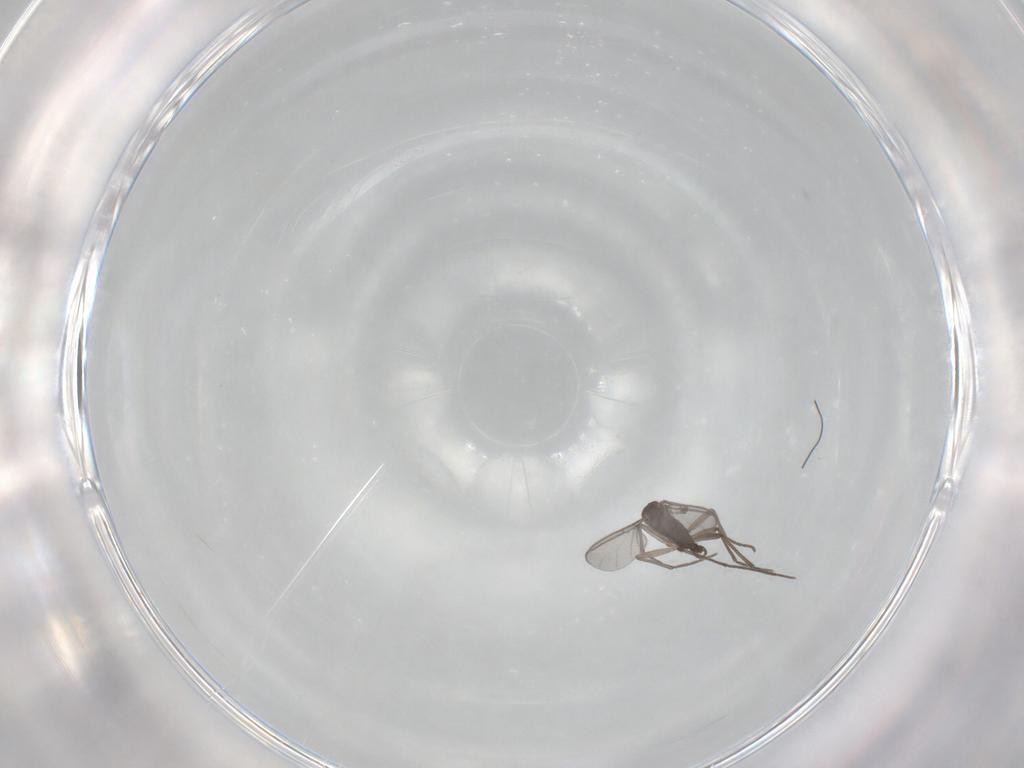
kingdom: Animalia
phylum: Arthropoda
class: Insecta
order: Diptera
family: Sciaridae
